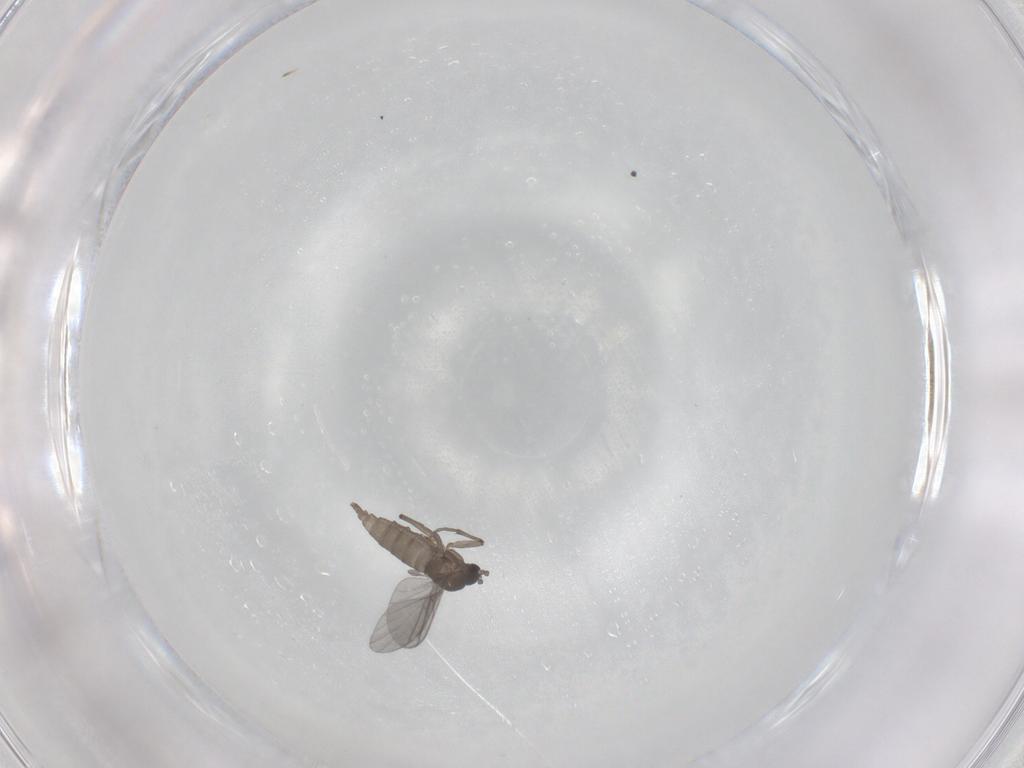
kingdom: Animalia
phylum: Arthropoda
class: Insecta
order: Diptera
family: Sciaridae
